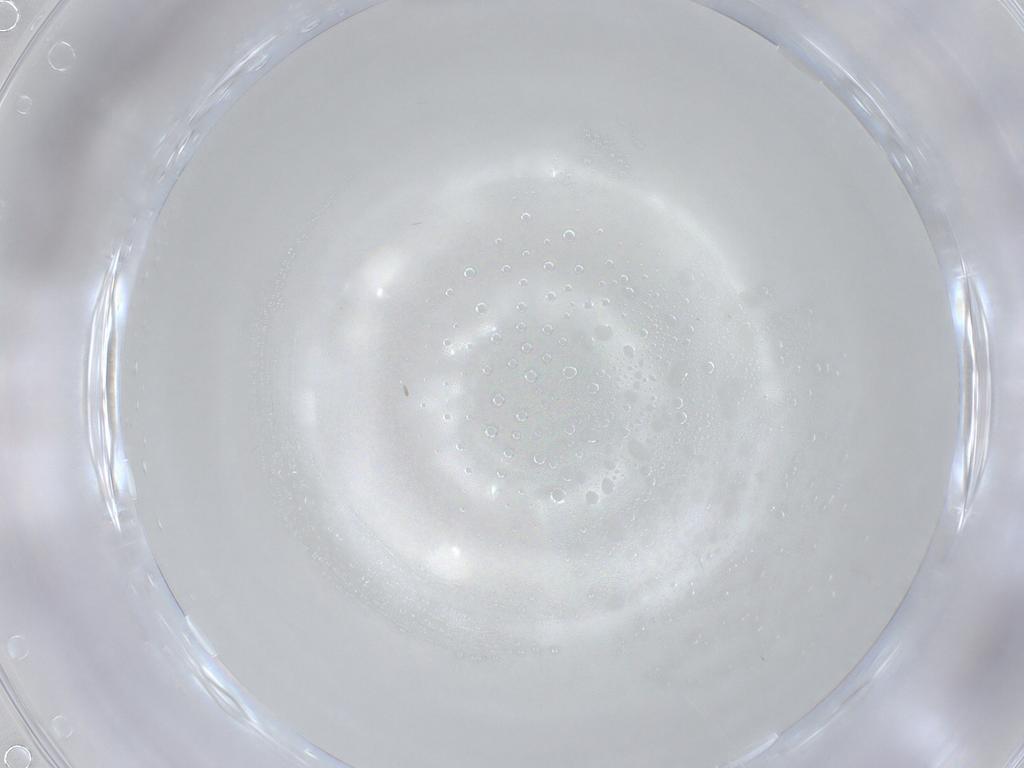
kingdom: Animalia
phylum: Arthropoda
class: Insecta
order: Thysanoptera
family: Phlaeothripidae
